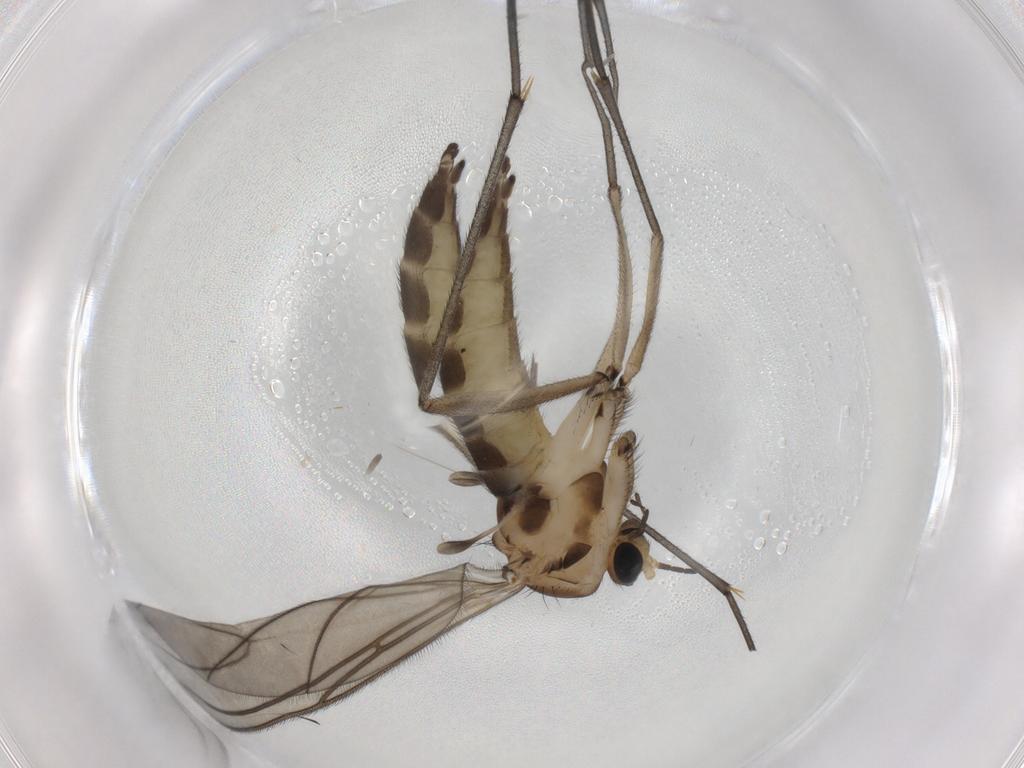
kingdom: Animalia
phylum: Arthropoda
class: Insecta
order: Diptera
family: Sciaridae
